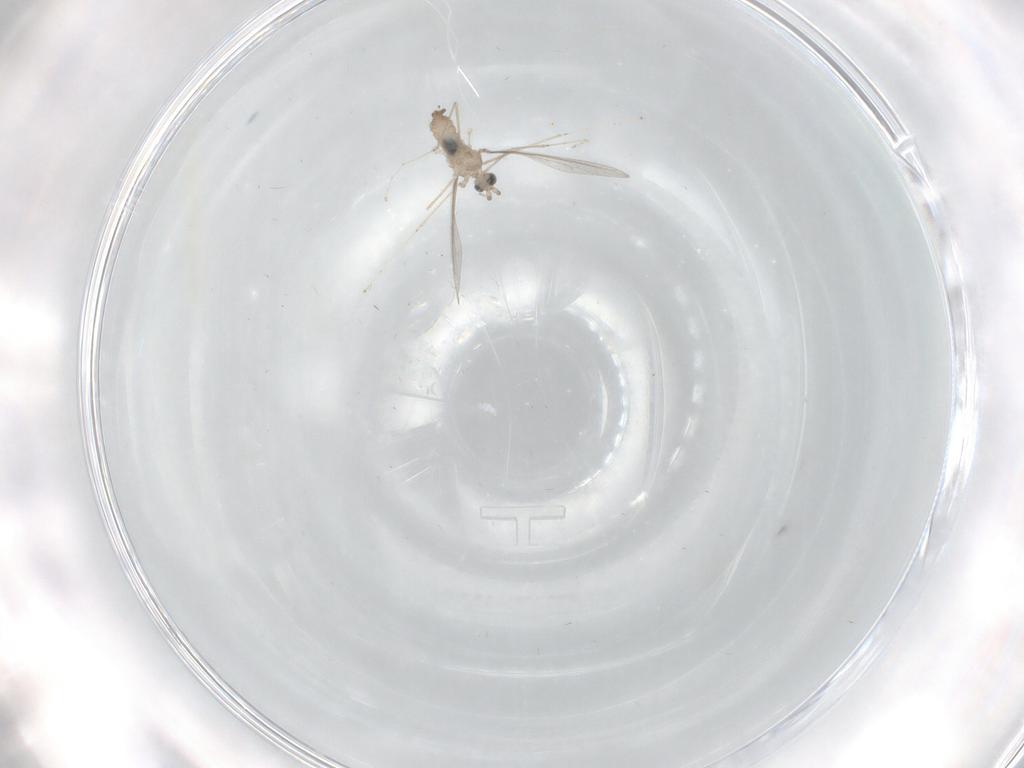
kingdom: Animalia
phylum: Arthropoda
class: Insecta
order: Diptera
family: Cecidomyiidae
